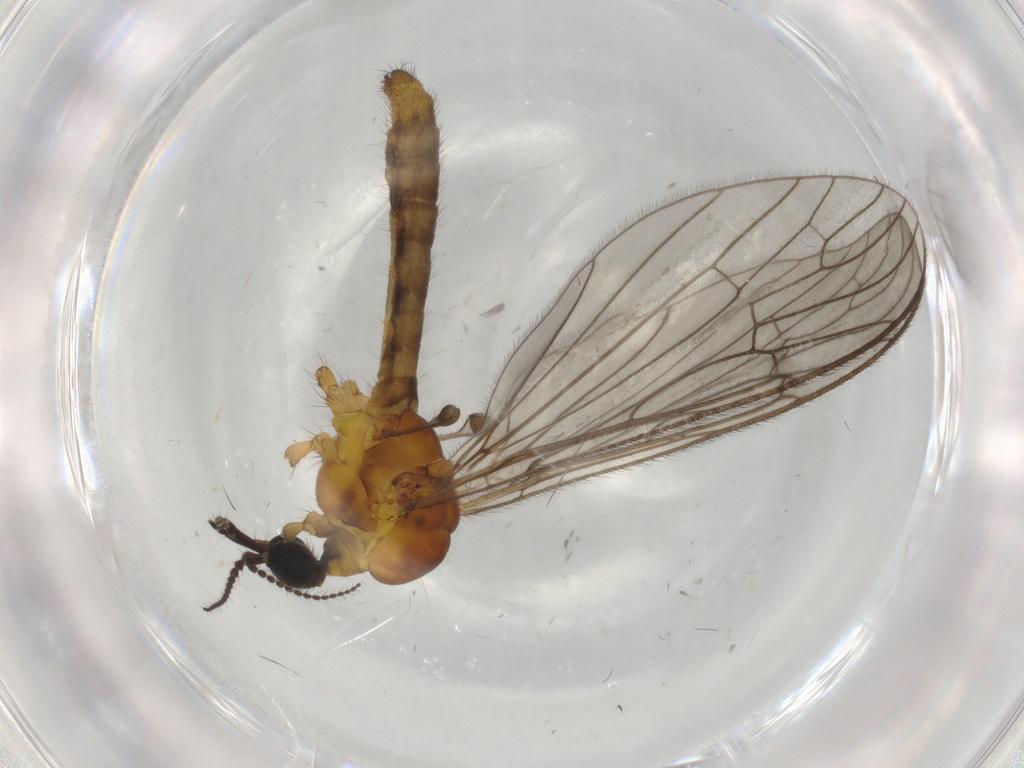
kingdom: Animalia
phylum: Arthropoda
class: Insecta
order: Diptera
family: Phoridae
